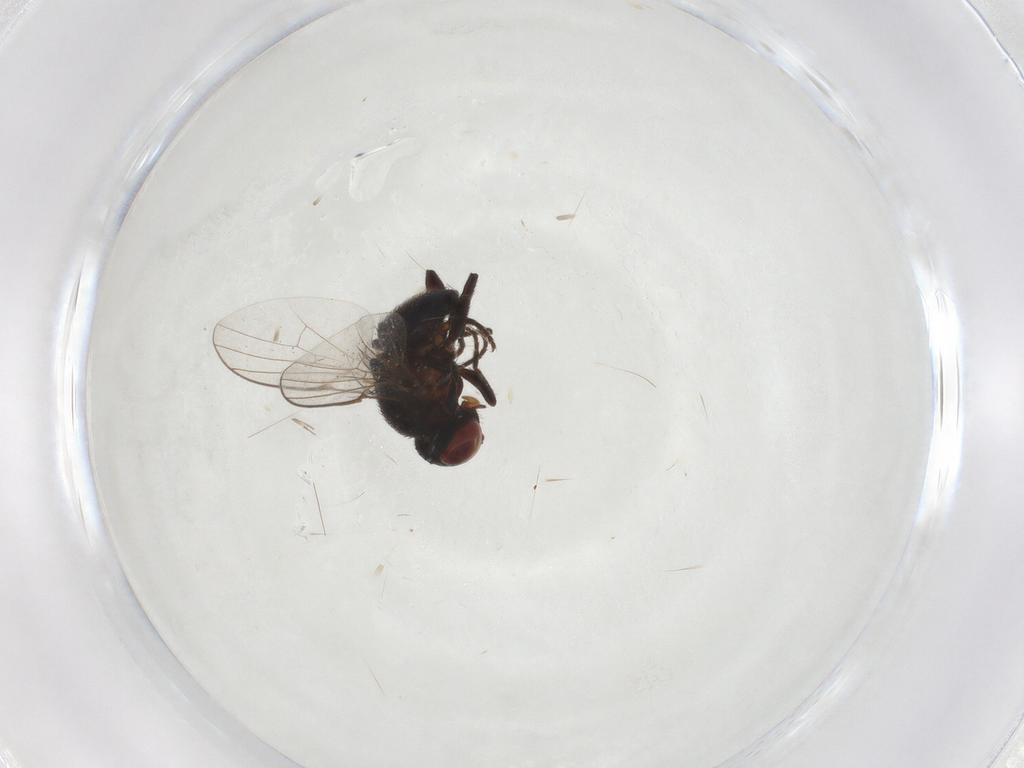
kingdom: Animalia
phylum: Arthropoda
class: Insecta
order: Diptera
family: Agromyzidae
